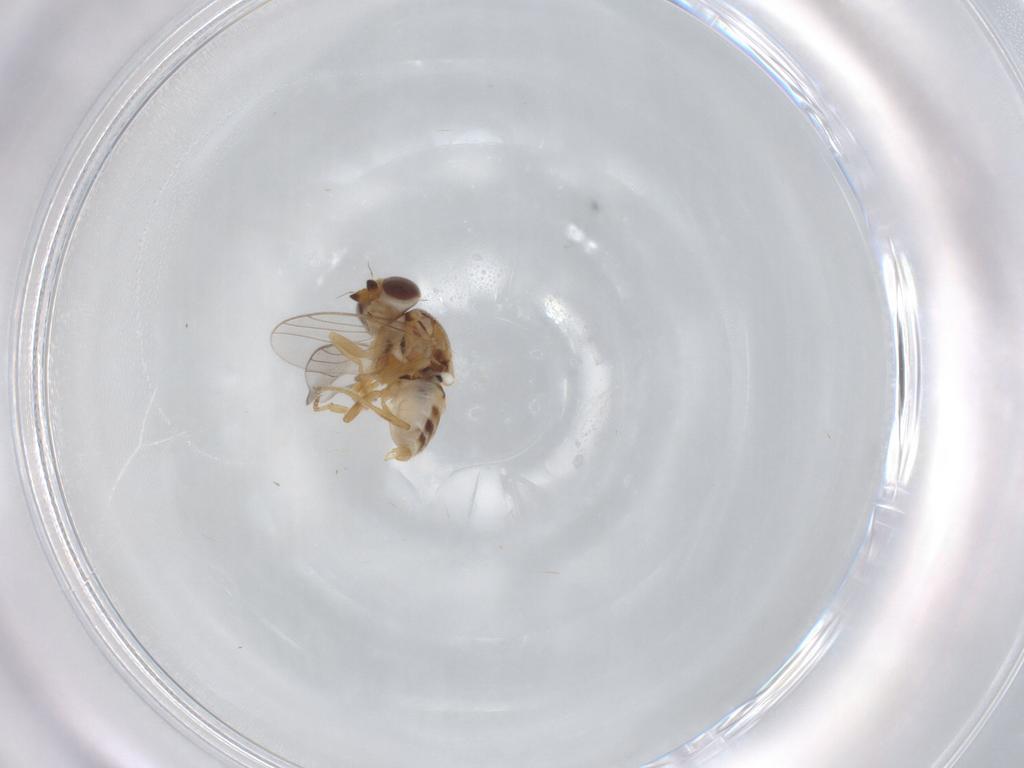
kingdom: Animalia
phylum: Arthropoda
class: Insecta
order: Diptera
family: Chloropidae
